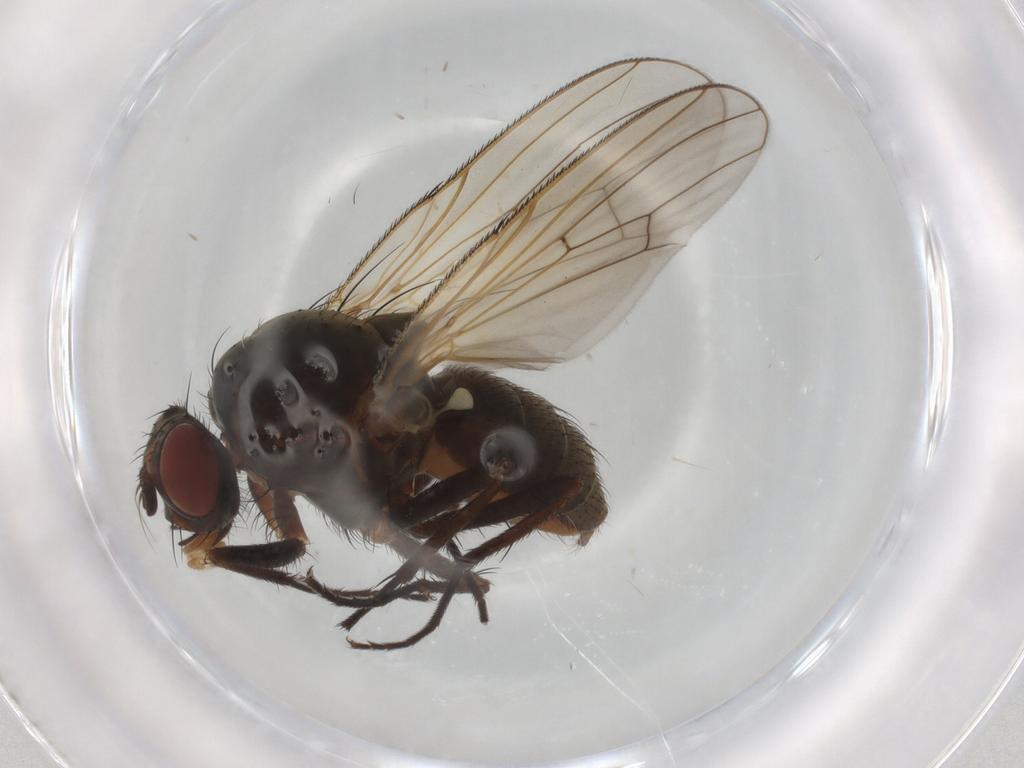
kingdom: Animalia
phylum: Arthropoda
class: Insecta
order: Diptera
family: Anthomyiidae
